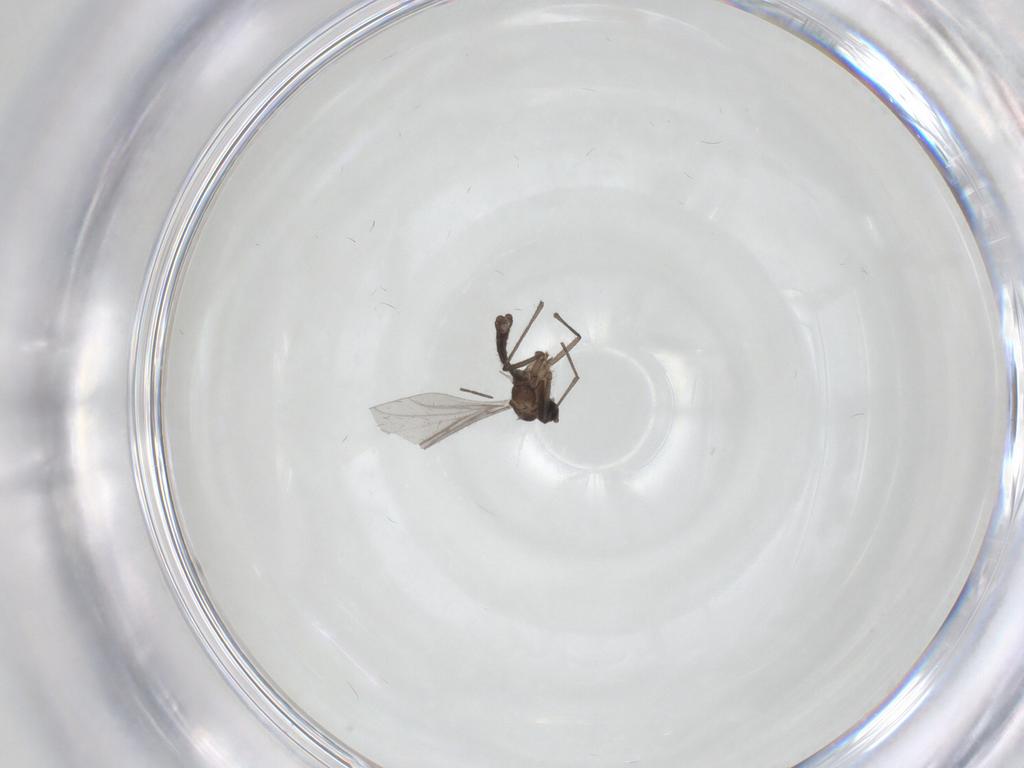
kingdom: Animalia
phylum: Arthropoda
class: Insecta
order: Diptera
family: Sciaridae
